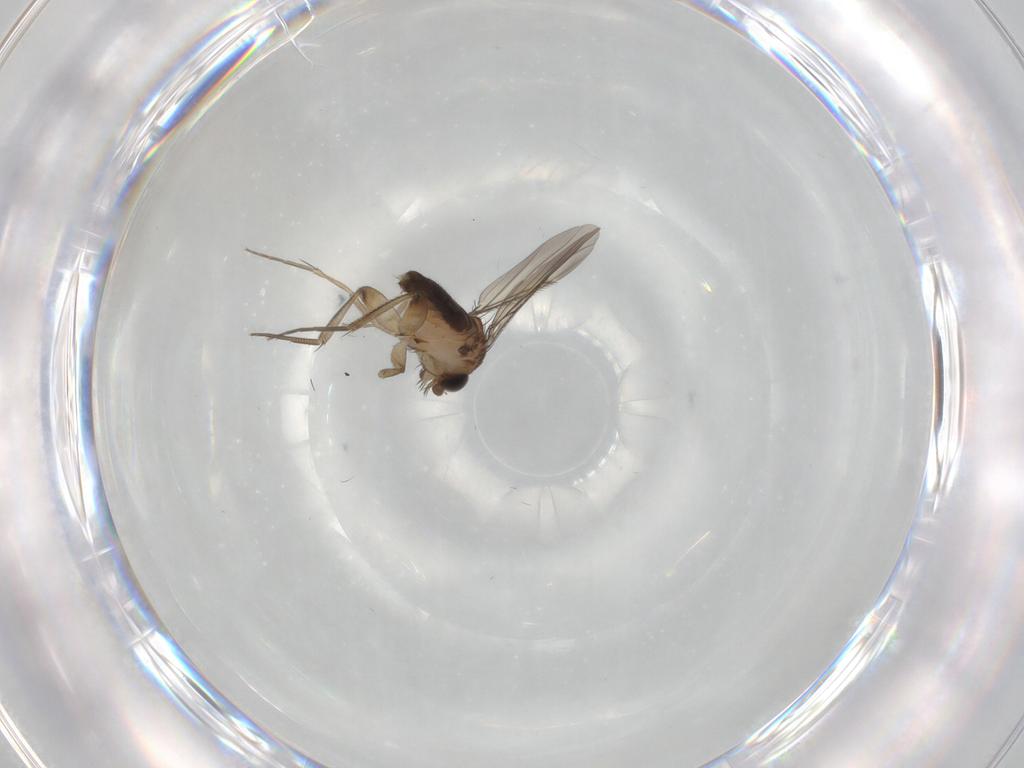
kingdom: Animalia
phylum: Arthropoda
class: Insecta
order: Diptera
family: Phoridae
